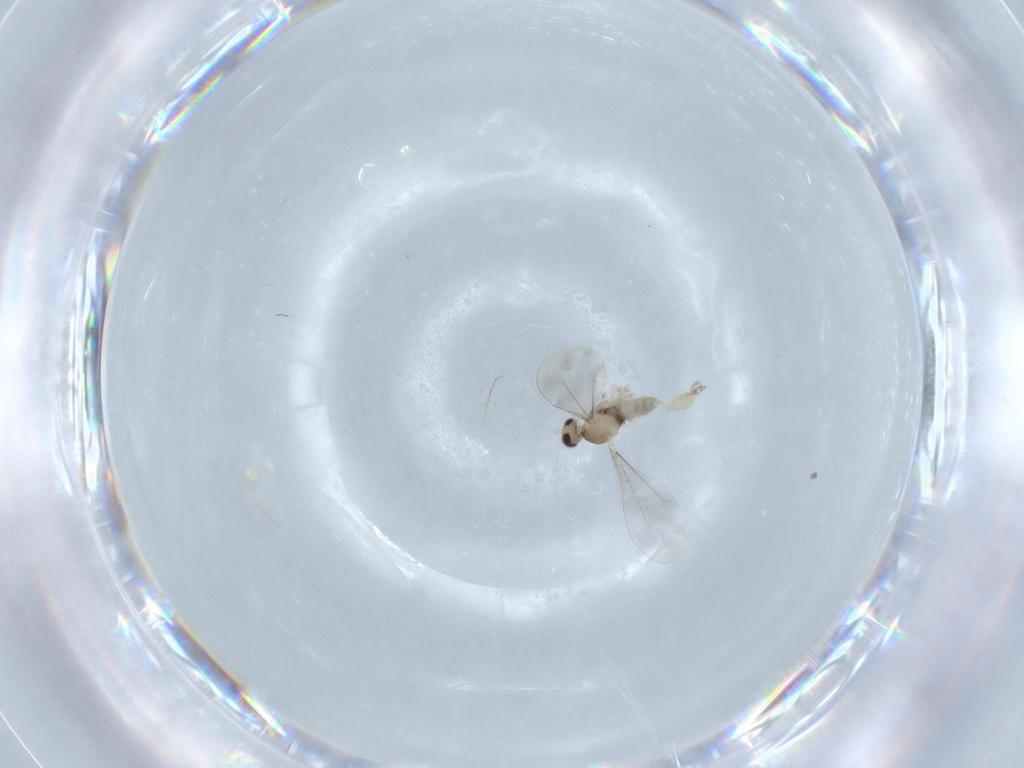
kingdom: Animalia
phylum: Arthropoda
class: Insecta
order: Diptera
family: Cecidomyiidae
